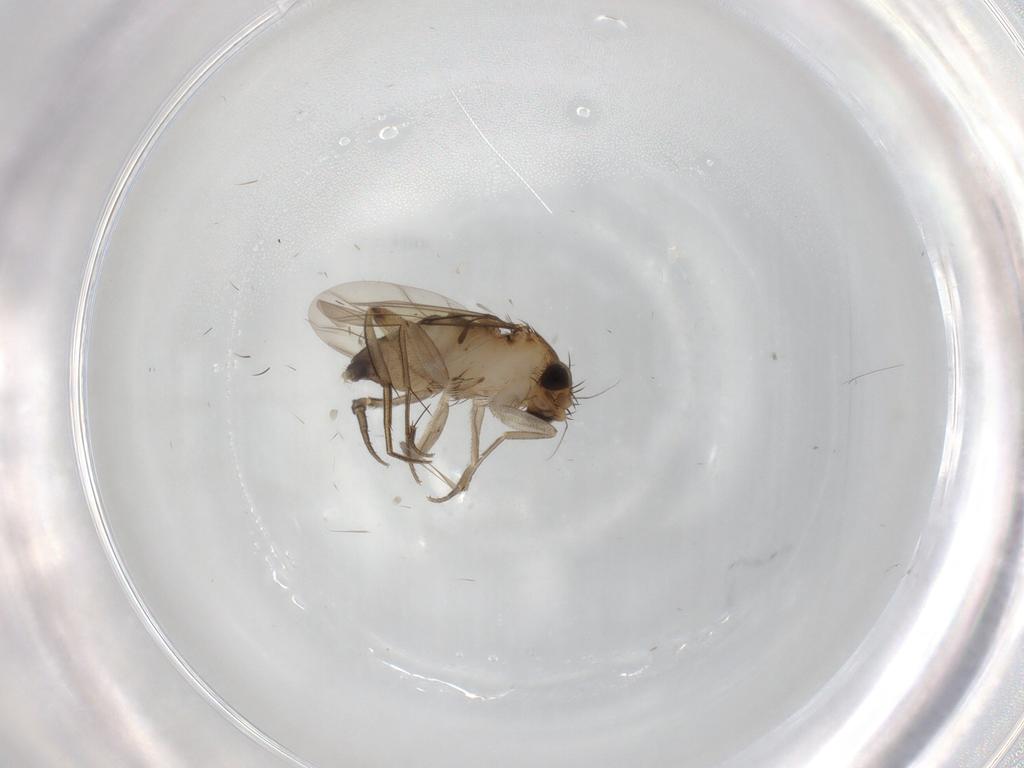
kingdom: Animalia
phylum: Arthropoda
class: Insecta
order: Diptera
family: Phoridae
